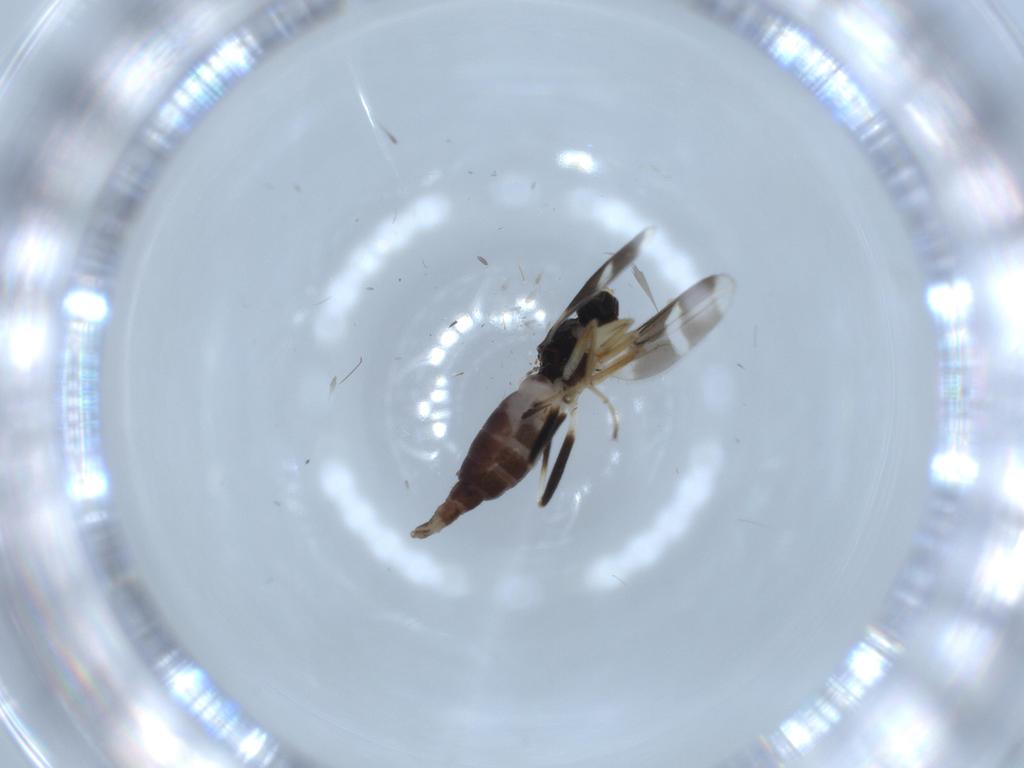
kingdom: Animalia
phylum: Arthropoda
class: Insecta
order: Diptera
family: Hybotidae
